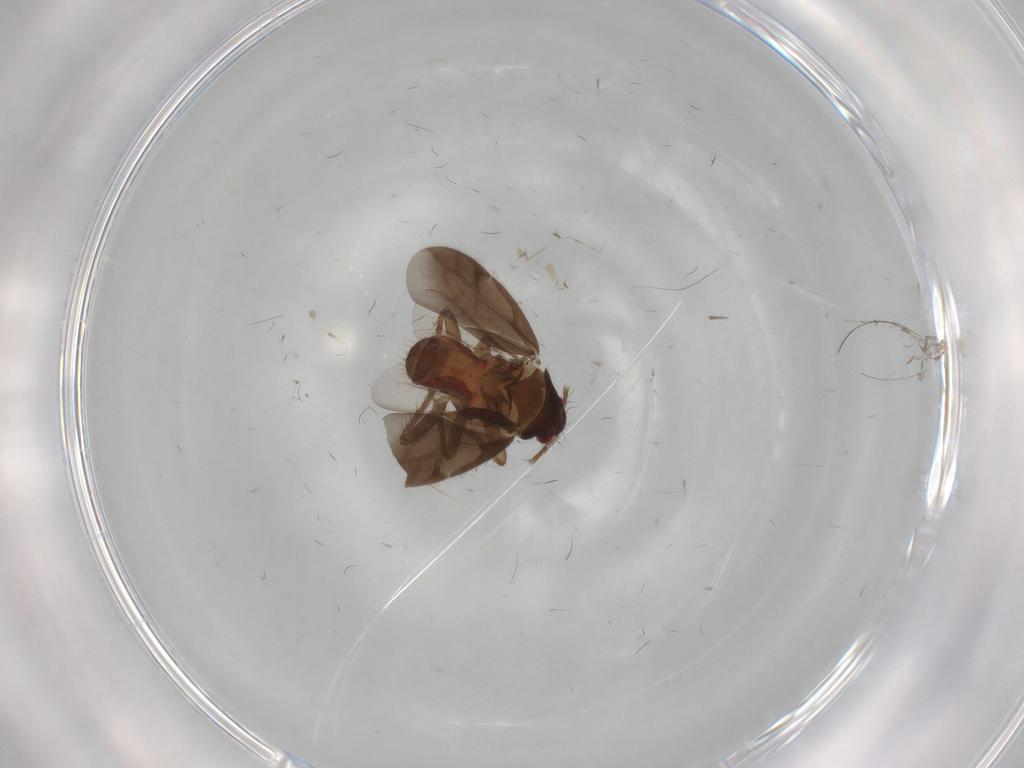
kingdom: Animalia
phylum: Arthropoda
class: Insecta
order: Hemiptera
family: Ceratocombidae
